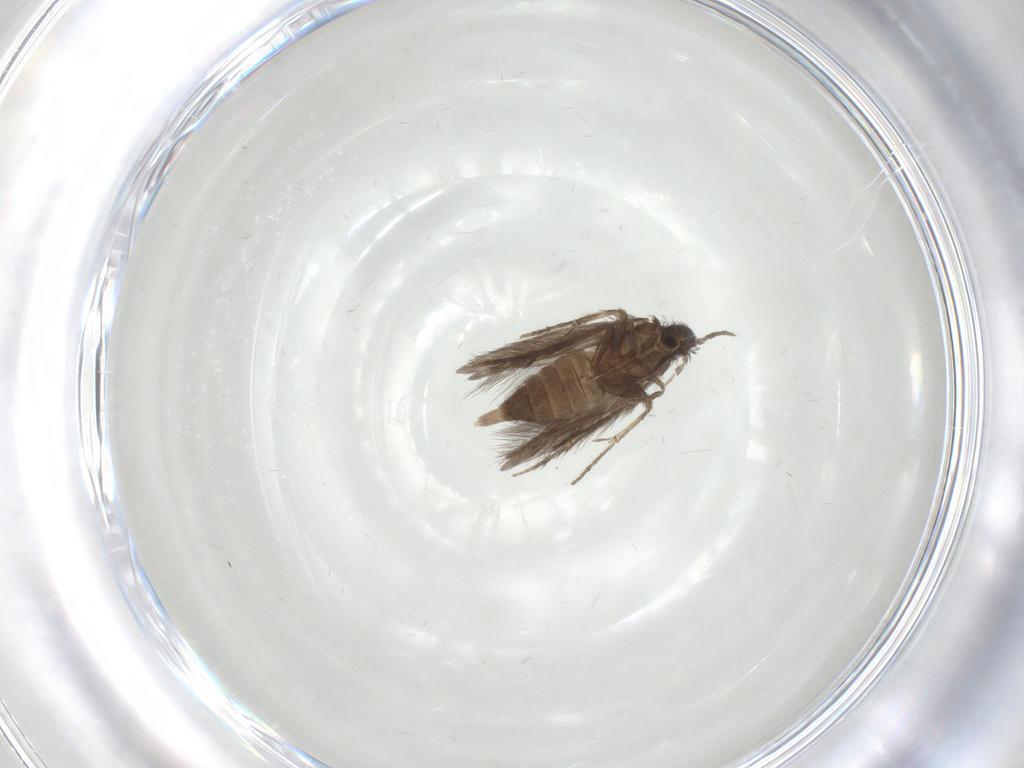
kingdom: Animalia
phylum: Arthropoda
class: Insecta
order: Trichoptera
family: Hydroptilidae
